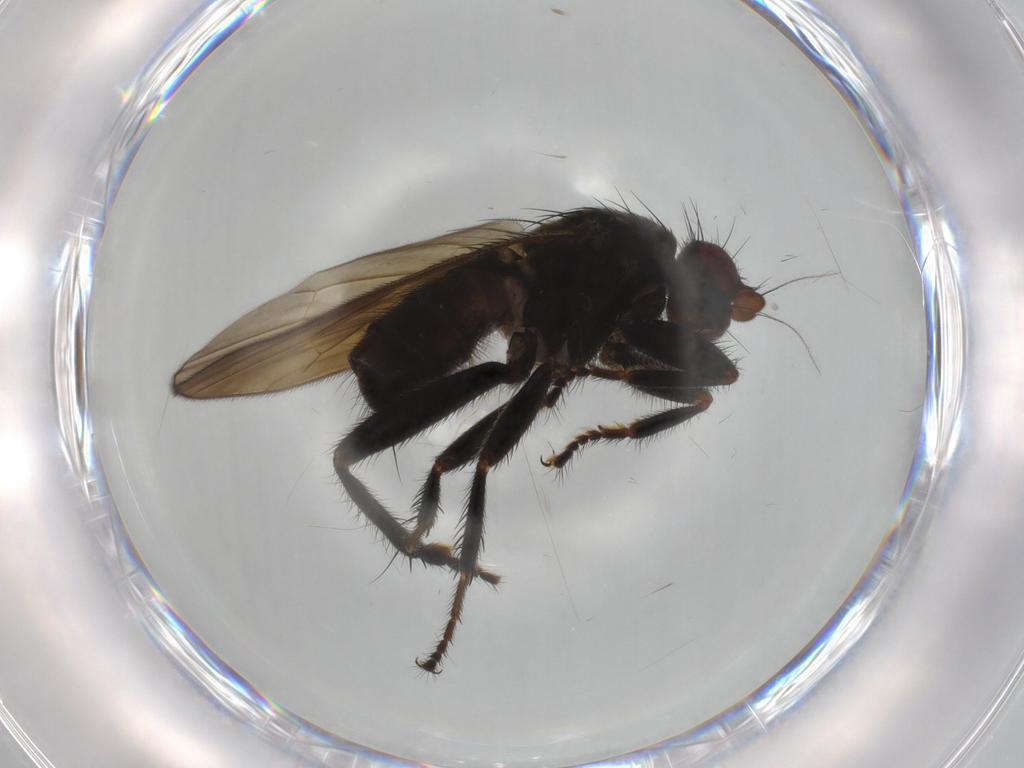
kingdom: Animalia
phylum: Arthropoda
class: Insecta
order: Diptera
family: Sphaeroceridae
